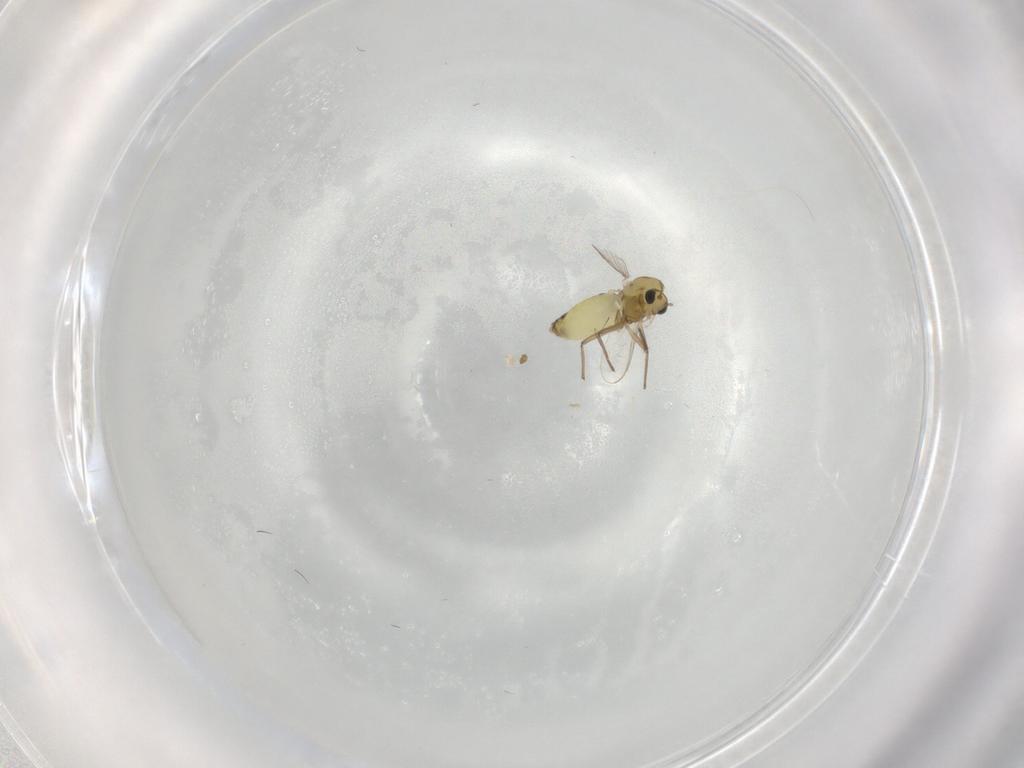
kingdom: Animalia
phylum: Arthropoda
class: Insecta
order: Diptera
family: Chironomidae
